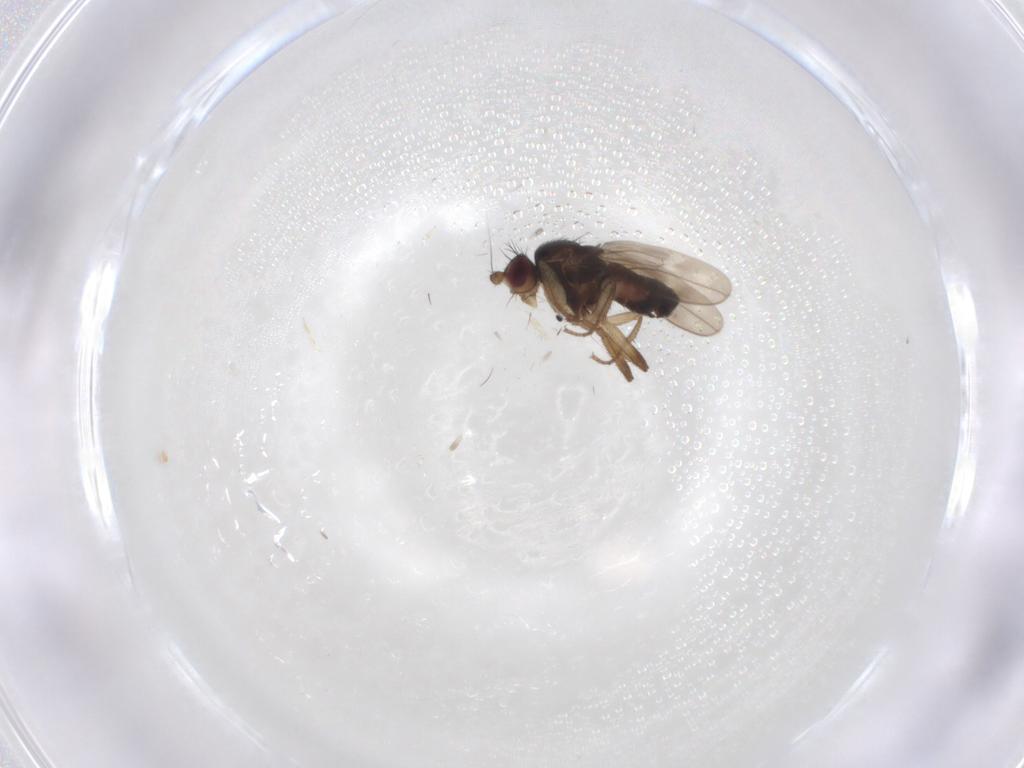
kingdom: Animalia
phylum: Arthropoda
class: Insecta
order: Diptera
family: Sphaeroceridae
